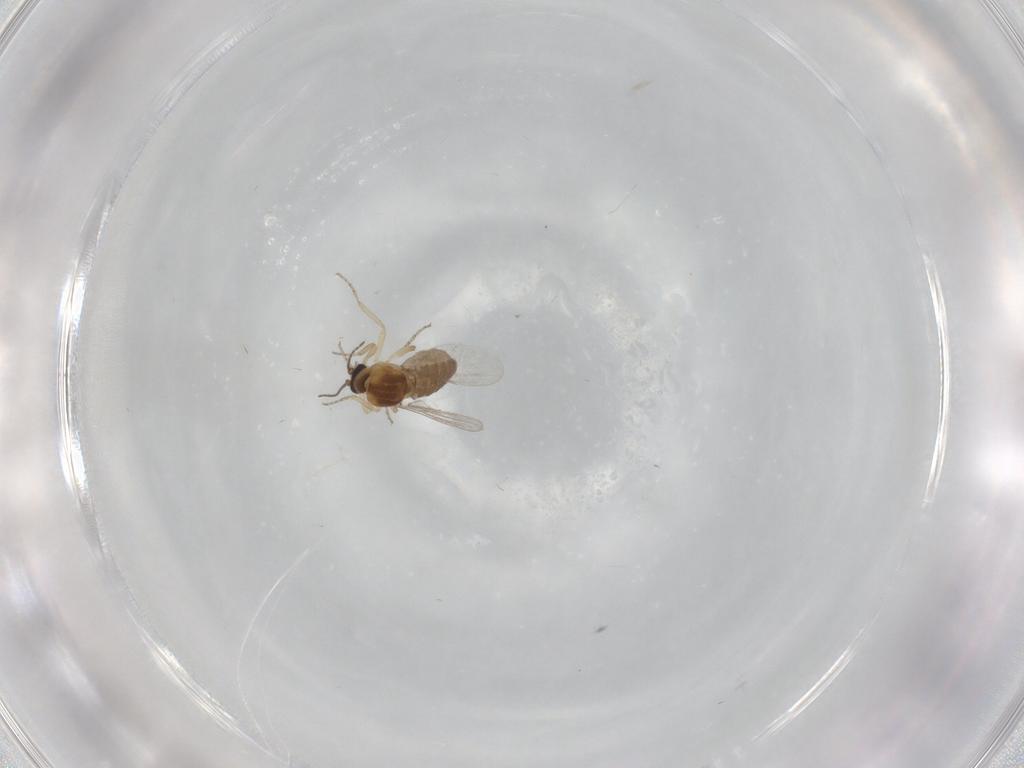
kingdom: Animalia
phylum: Arthropoda
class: Insecta
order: Diptera
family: Ceratopogonidae
